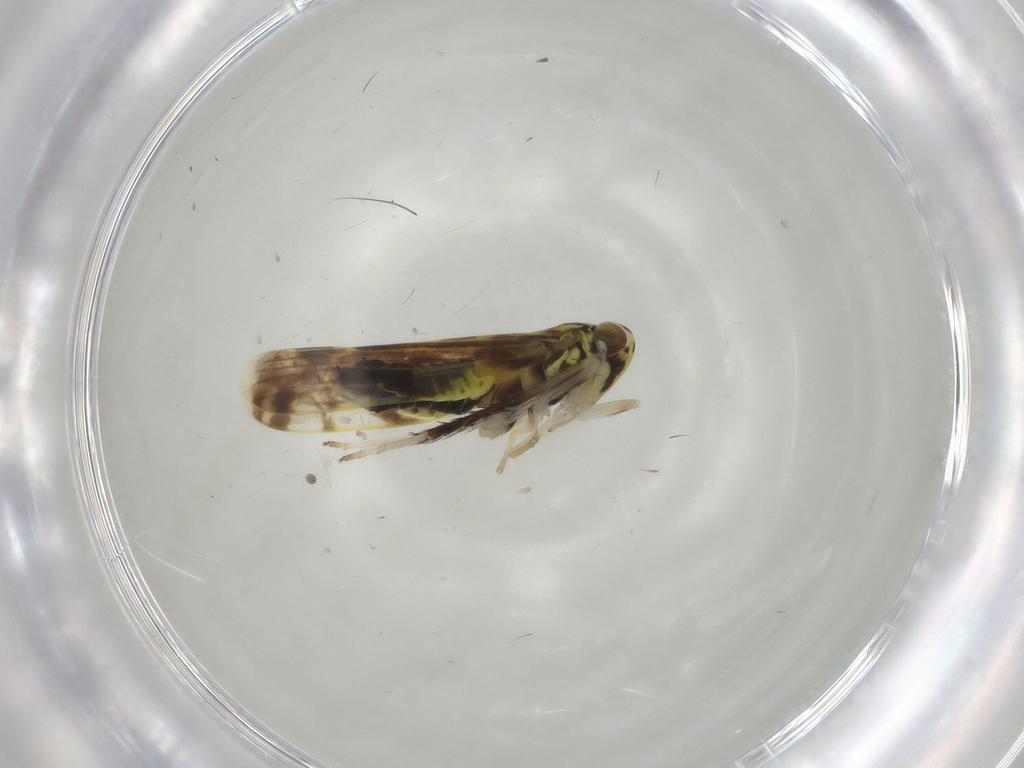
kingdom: Animalia
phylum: Arthropoda
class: Insecta
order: Hemiptera
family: Cicadellidae
